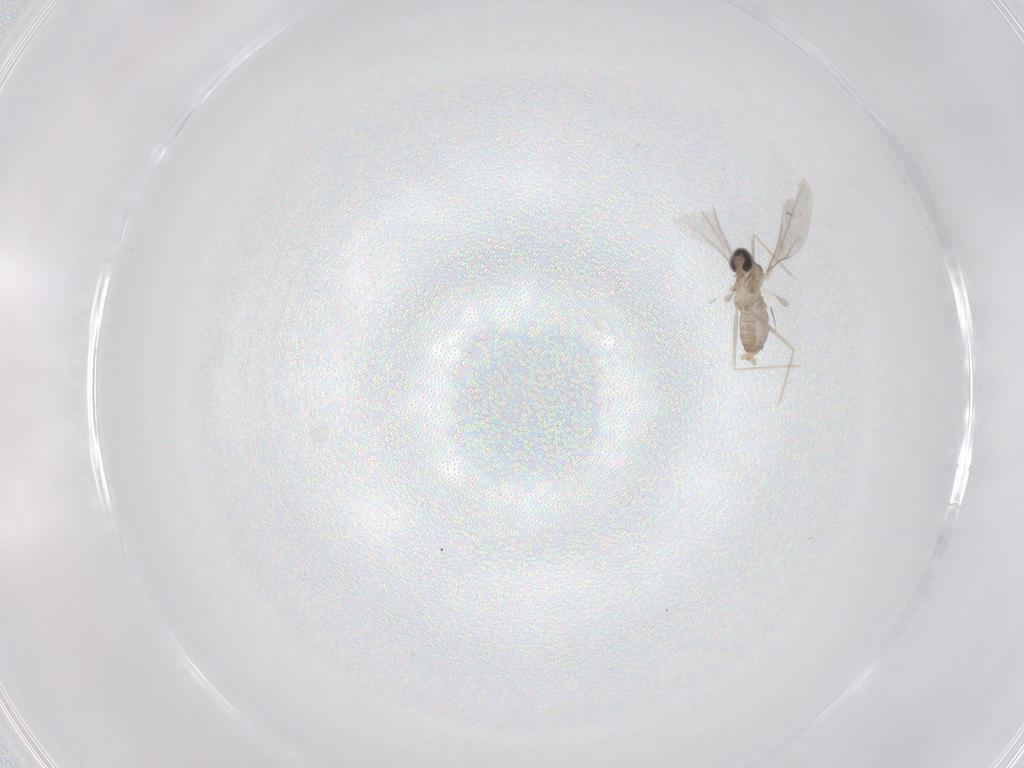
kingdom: Animalia
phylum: Arthropoda
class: Insecta
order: Diptera
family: Cecidomyiidae
